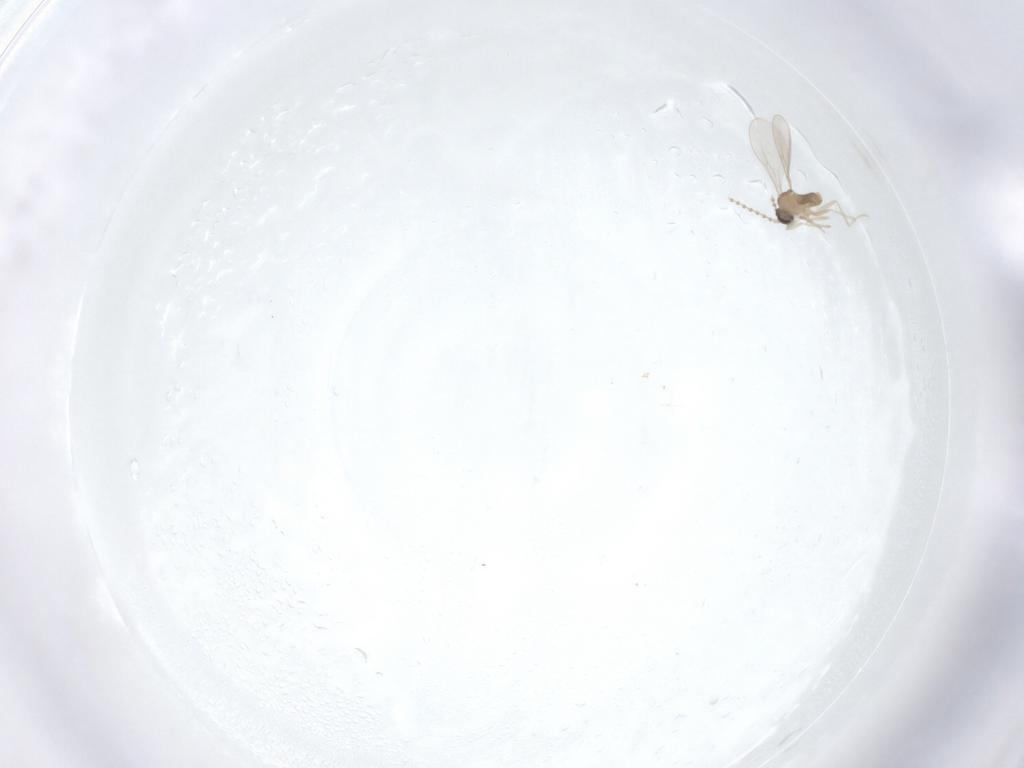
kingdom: Animalia
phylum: Arthropoda
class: Insecta
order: Diptera
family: Cecidomyiidae
